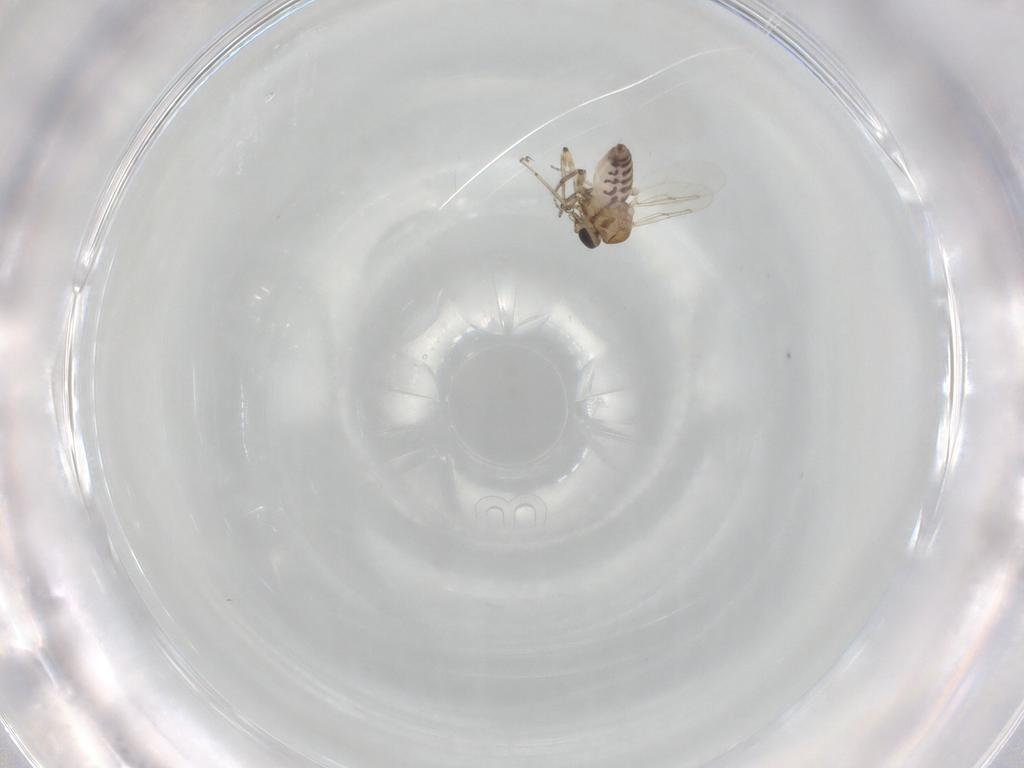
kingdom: Animalia
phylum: Arthropoda
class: Insecta
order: Diptera
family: Ceratopogonidae
